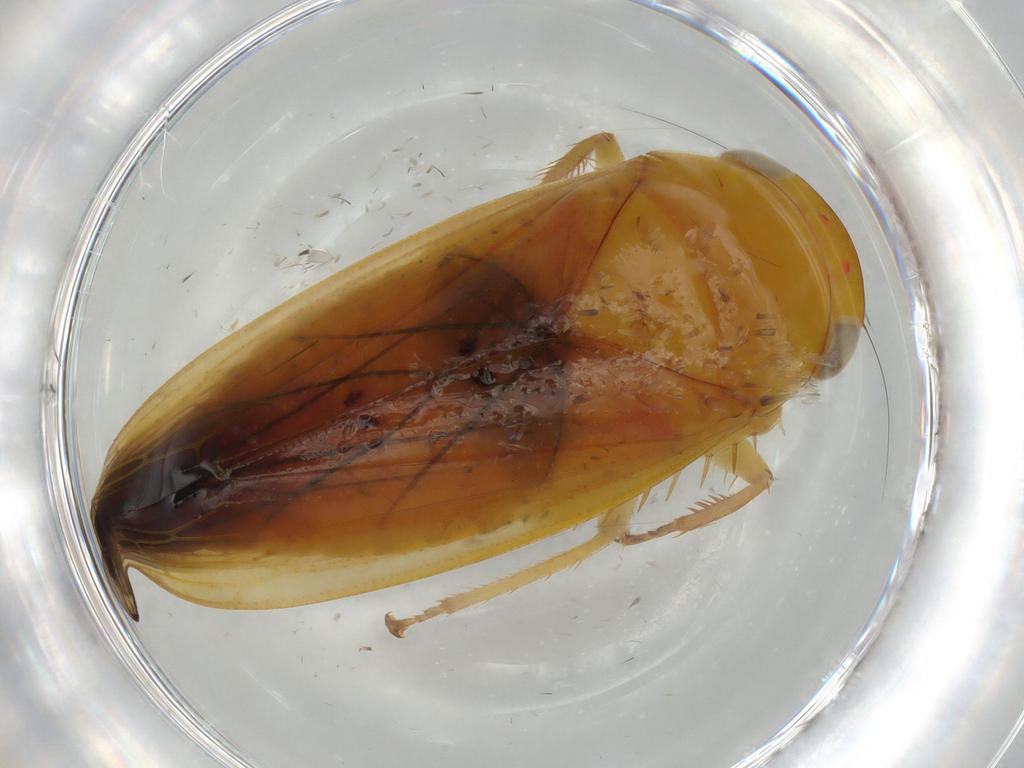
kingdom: Animalia
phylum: Arthropoda
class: Insecta
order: Hemiptera
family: Cicadellidae
